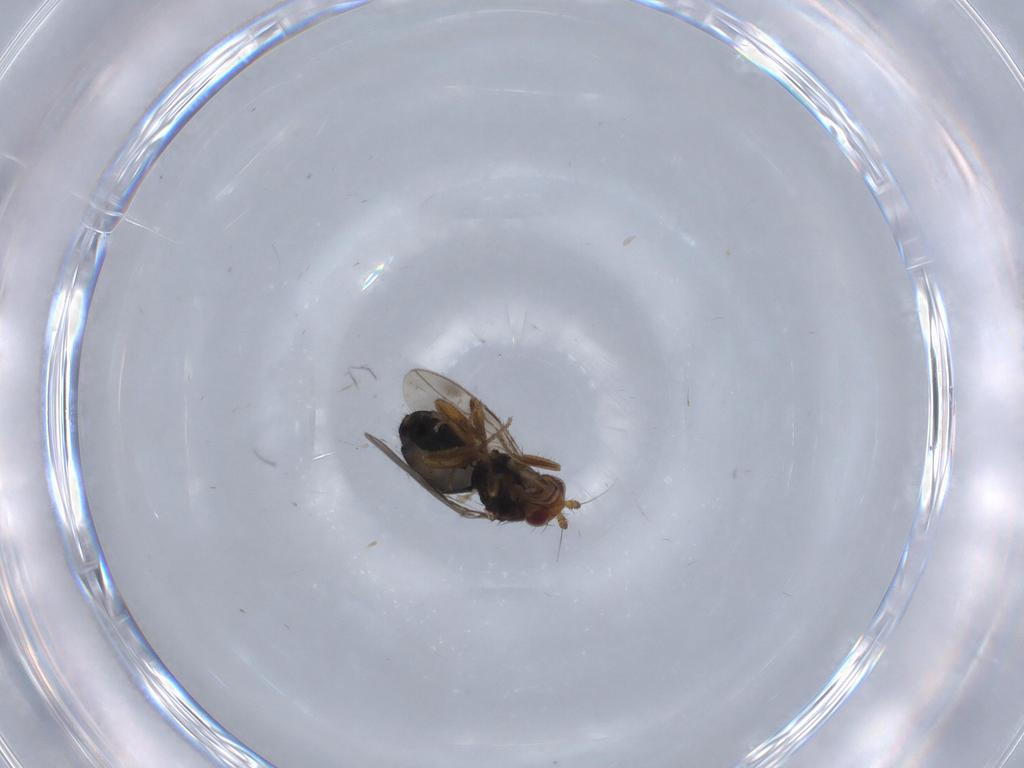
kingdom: Animalia
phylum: Arthropoda
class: Insecta
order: Diptera
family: Sphaeroceridae
